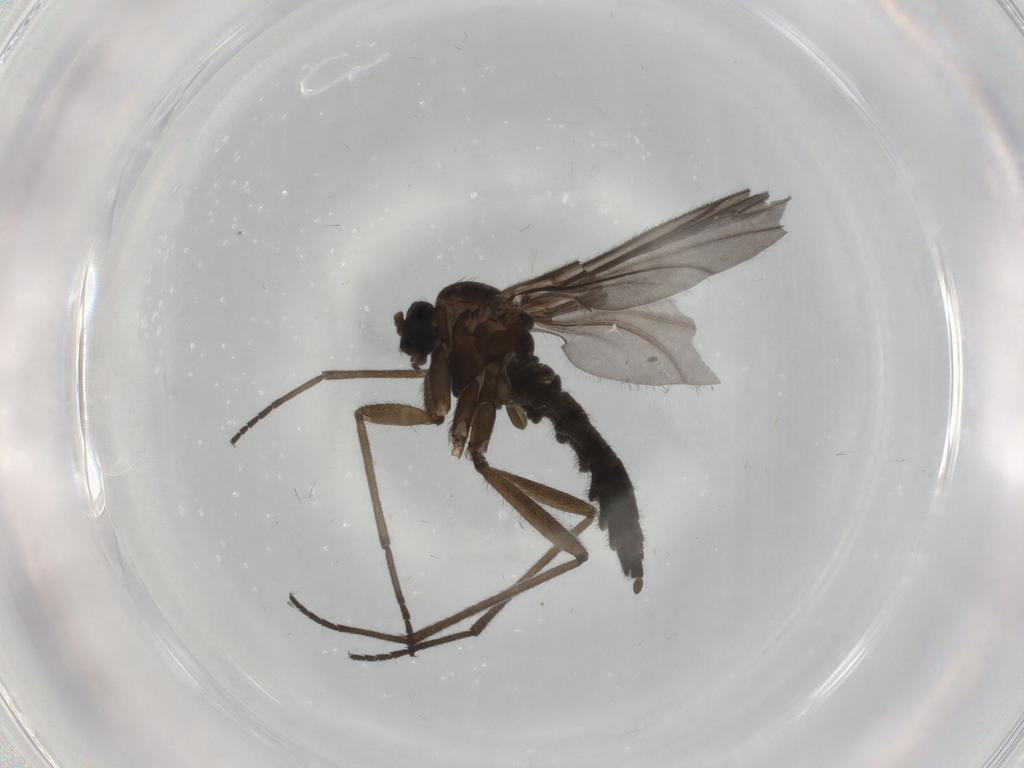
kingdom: Animalia
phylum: Arthropoda
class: Insecta
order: Diptera
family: Sciaridae
